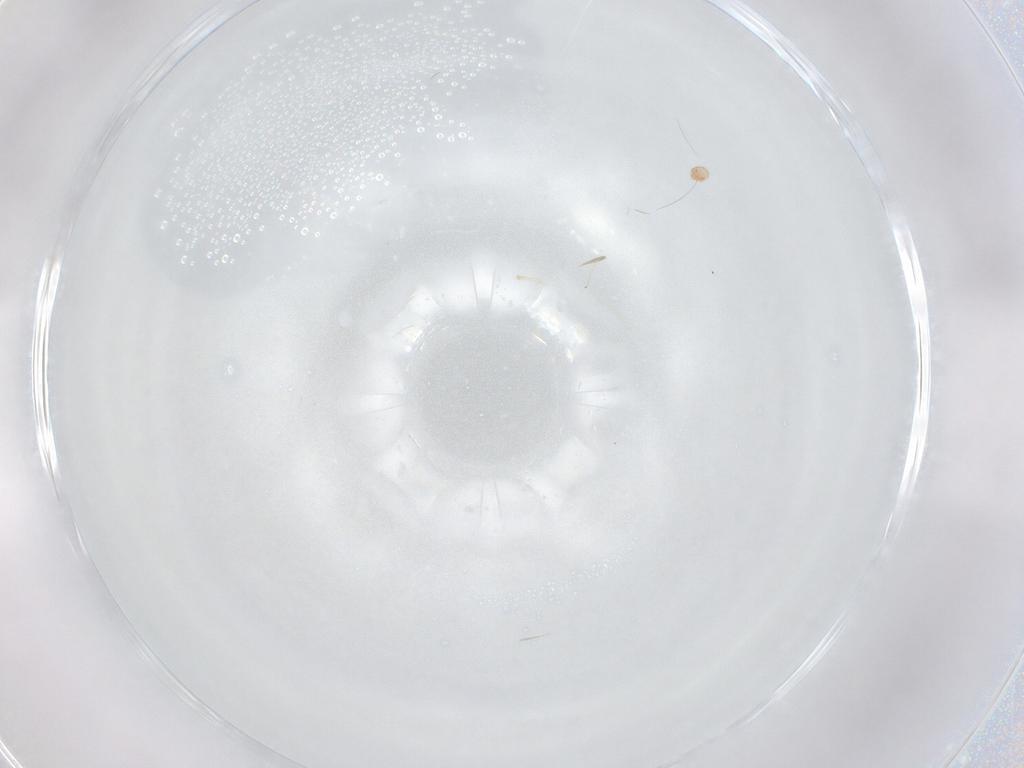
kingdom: Animalia
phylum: Arthropoda
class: Arachnida
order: Trombidiformes
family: Scutacaridae
